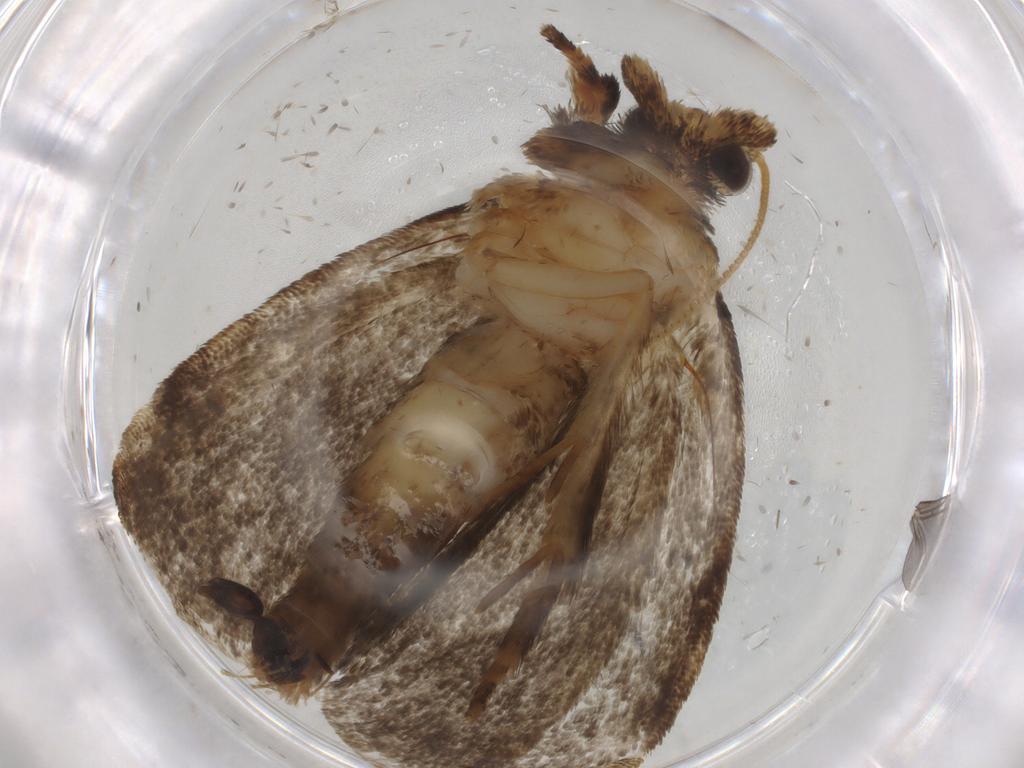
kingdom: Animalia
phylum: Arthropoda
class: Insecta
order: Lepidoptera
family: Tineidae
